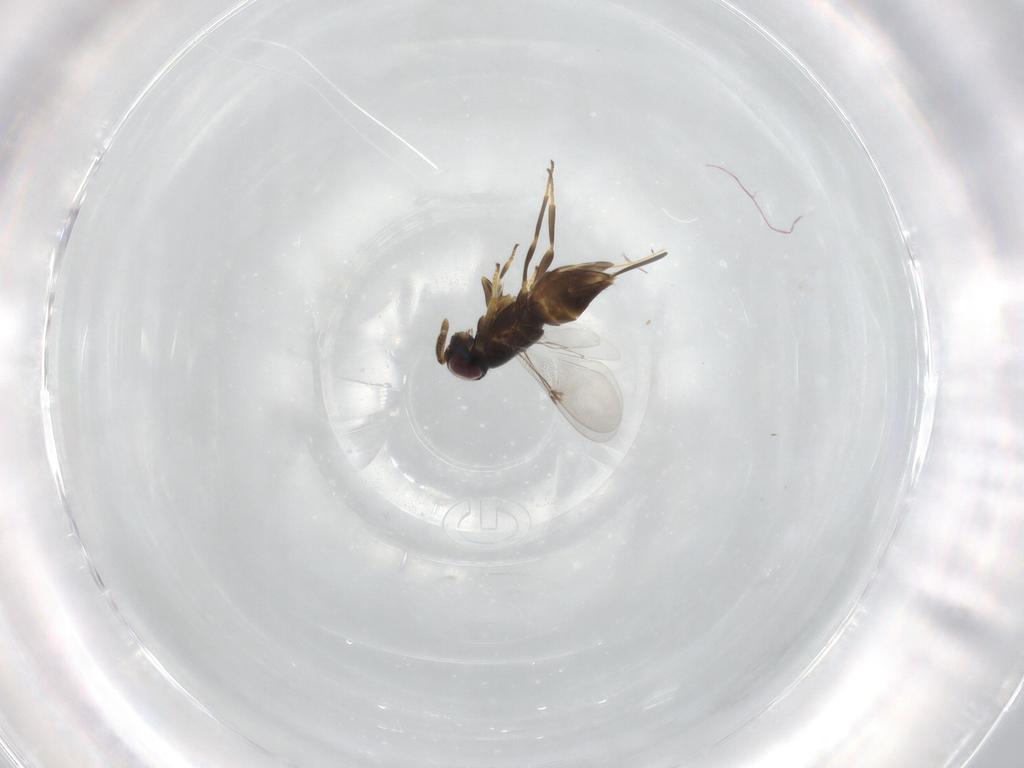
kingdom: Animalia
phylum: Arthropoda
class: Insecta
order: Hymenoptera
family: Encyrtidae
